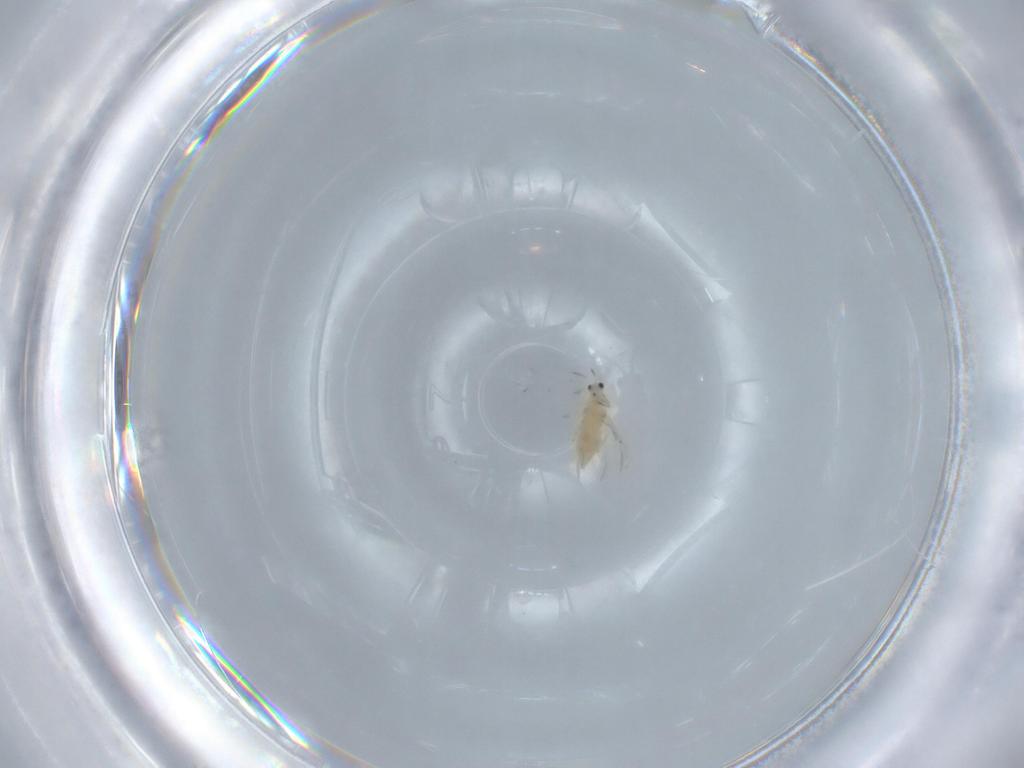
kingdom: Animalia
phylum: Arthropoda
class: Insecta
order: Thysanoptera
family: Thripidae
